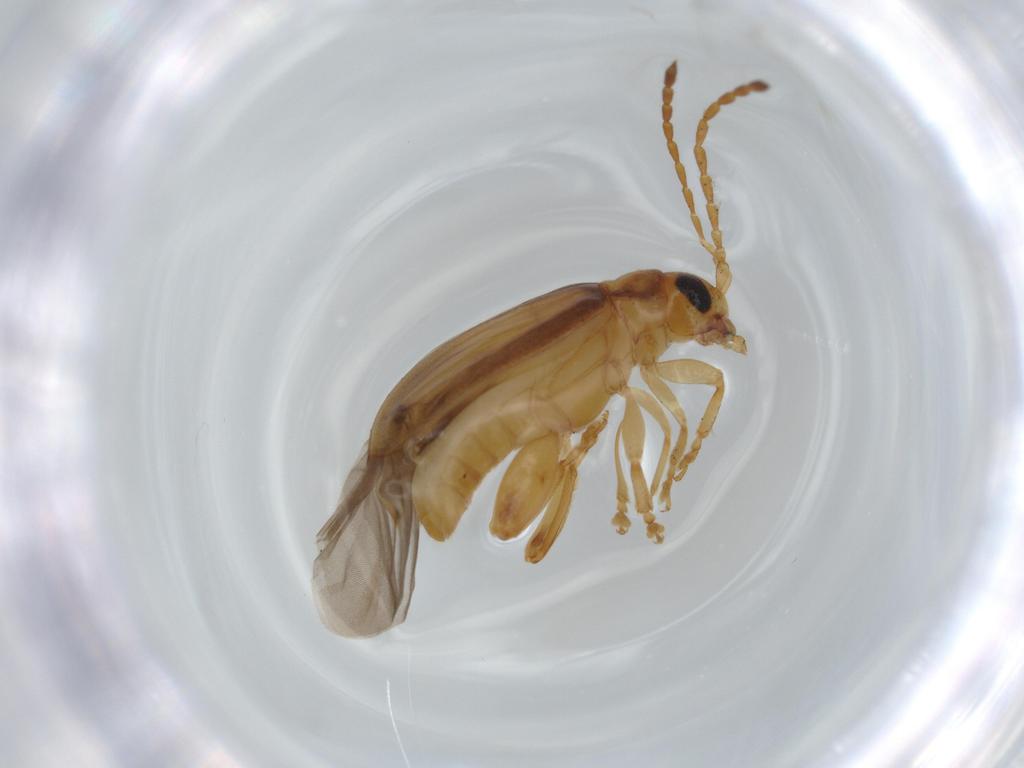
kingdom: Animalia
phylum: Arthropoda
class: Insecta
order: Coleoptera
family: Chrysomelidae
